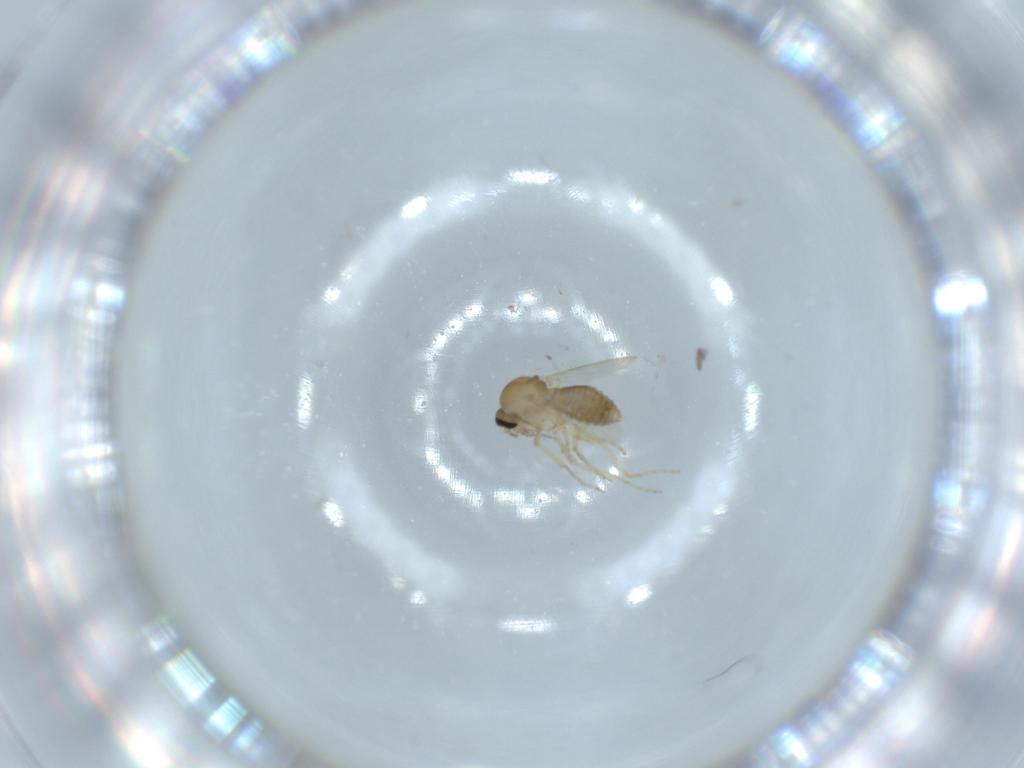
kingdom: Animalia
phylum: Arthropoda
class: Insecta
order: Diptera
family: Ceratopogonidae
